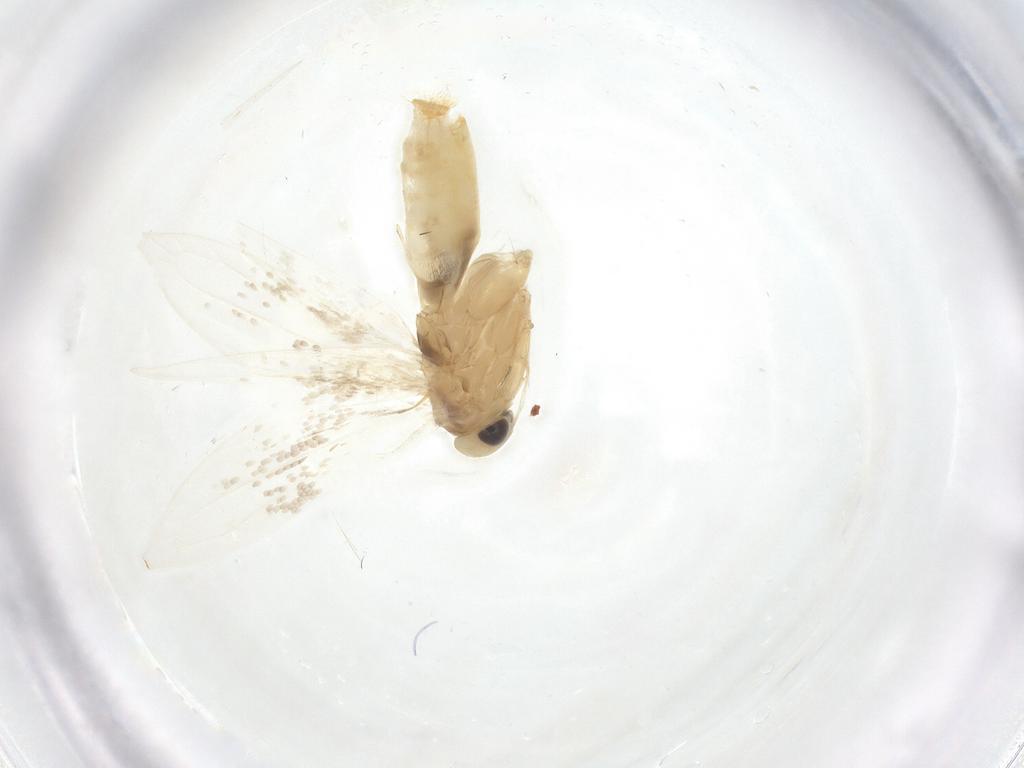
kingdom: Animalia
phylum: Arthropoda
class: Insecta
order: Lepidoptera
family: Gracillariidae
